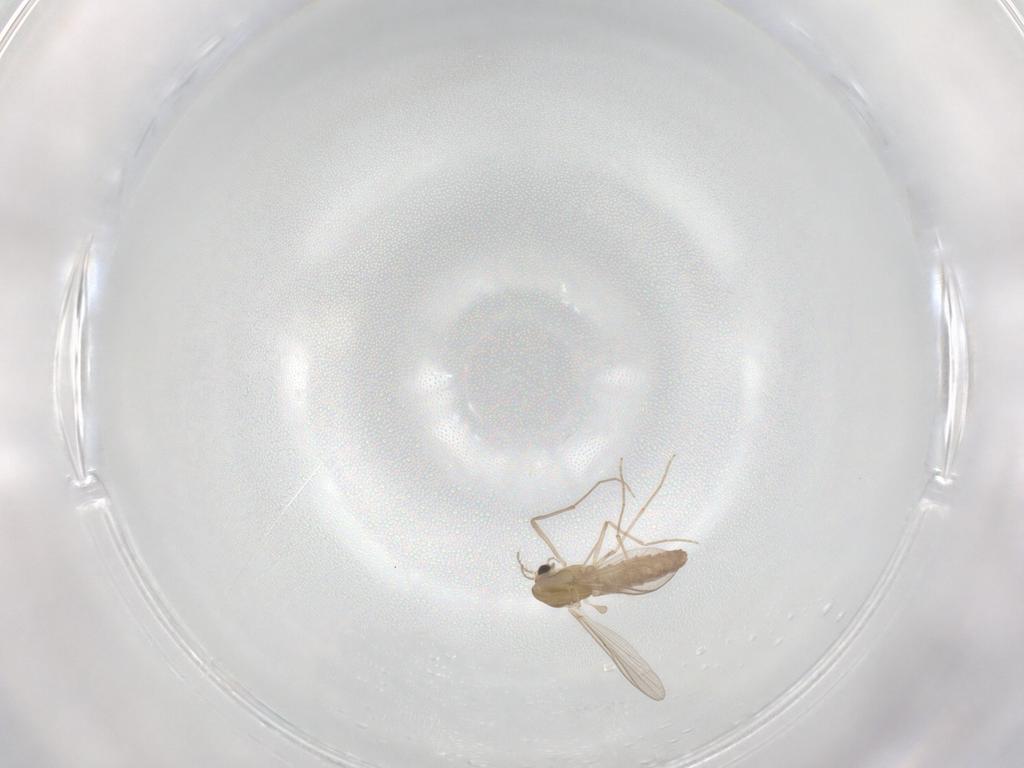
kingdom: Animalia
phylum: Arthropoda
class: Insecta
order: Diptera
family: Chironomidae
